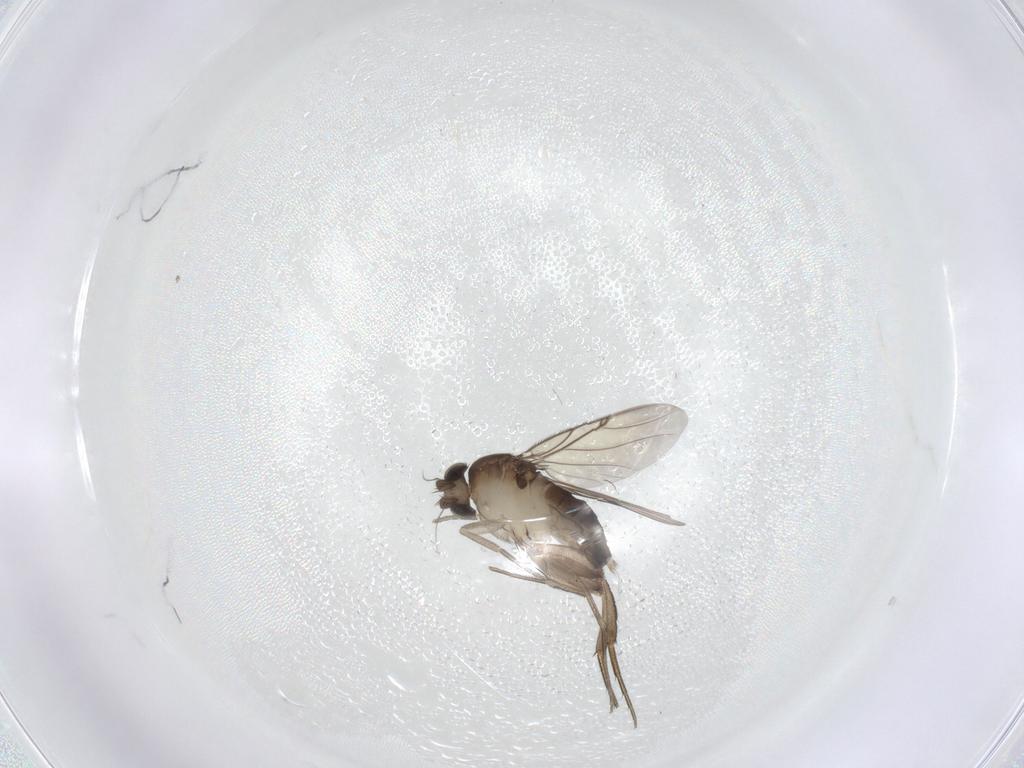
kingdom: Animalia
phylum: Arthropoda
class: Insecta
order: Diptera
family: Phoridae
